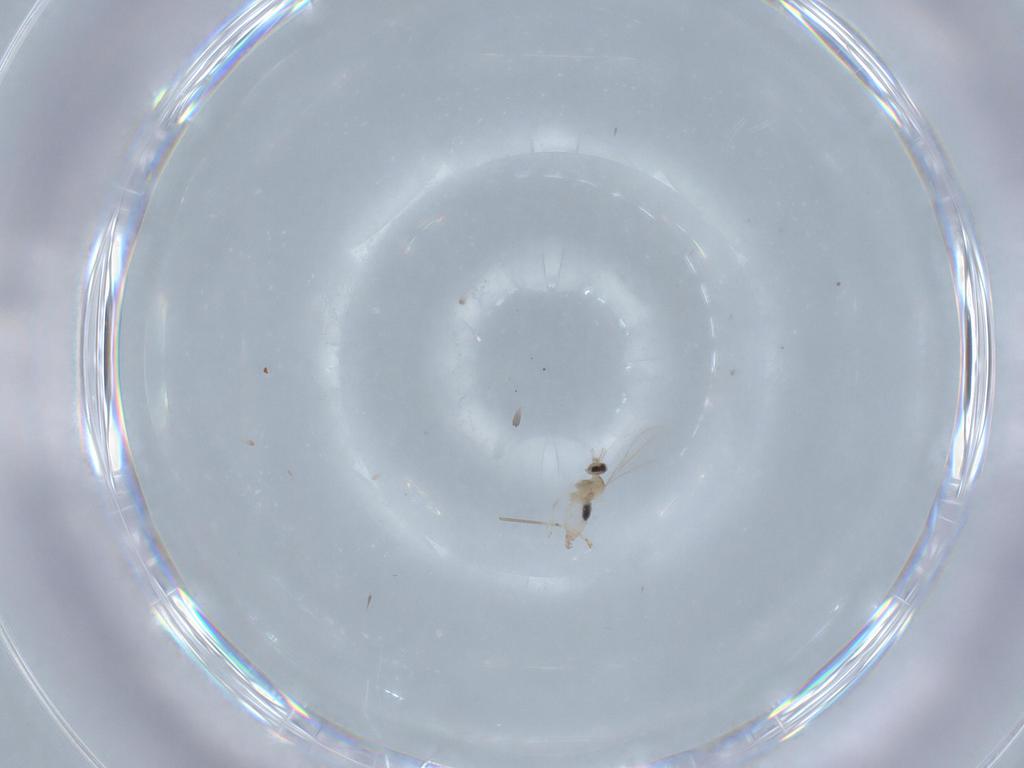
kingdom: Animalia
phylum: Arthropoda
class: Insecta
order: Diptera
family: Cecidomyiidae
